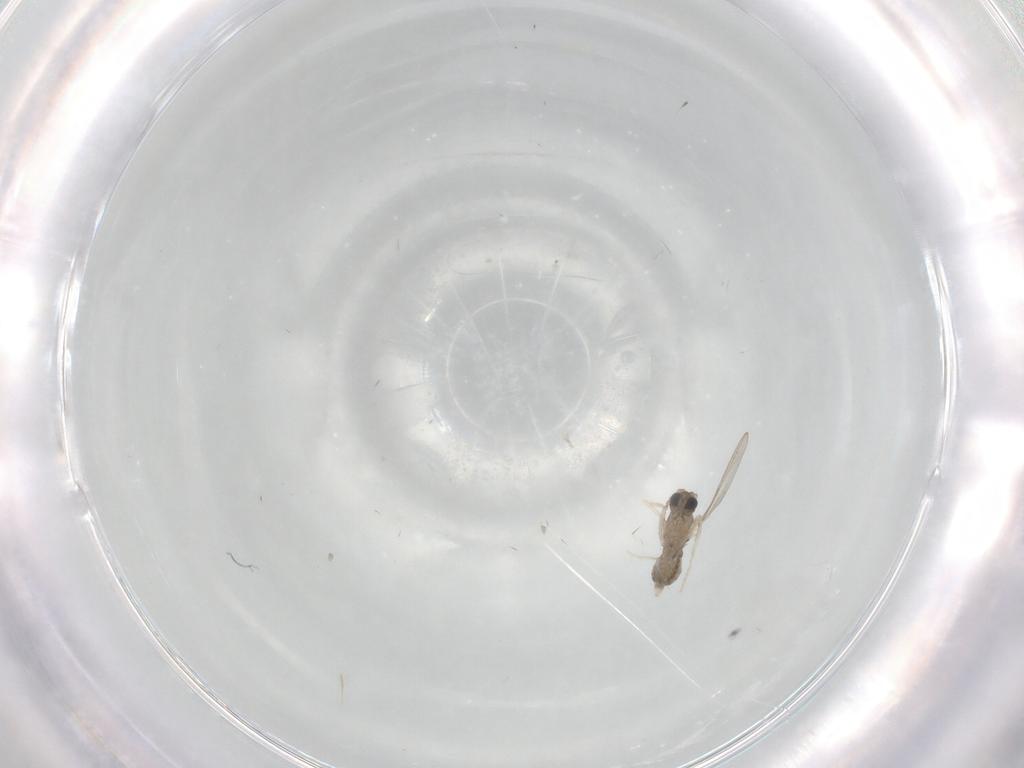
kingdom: Animalia
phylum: Arthropoda
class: Insecta
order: Diptera
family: Cecidomyiidae
